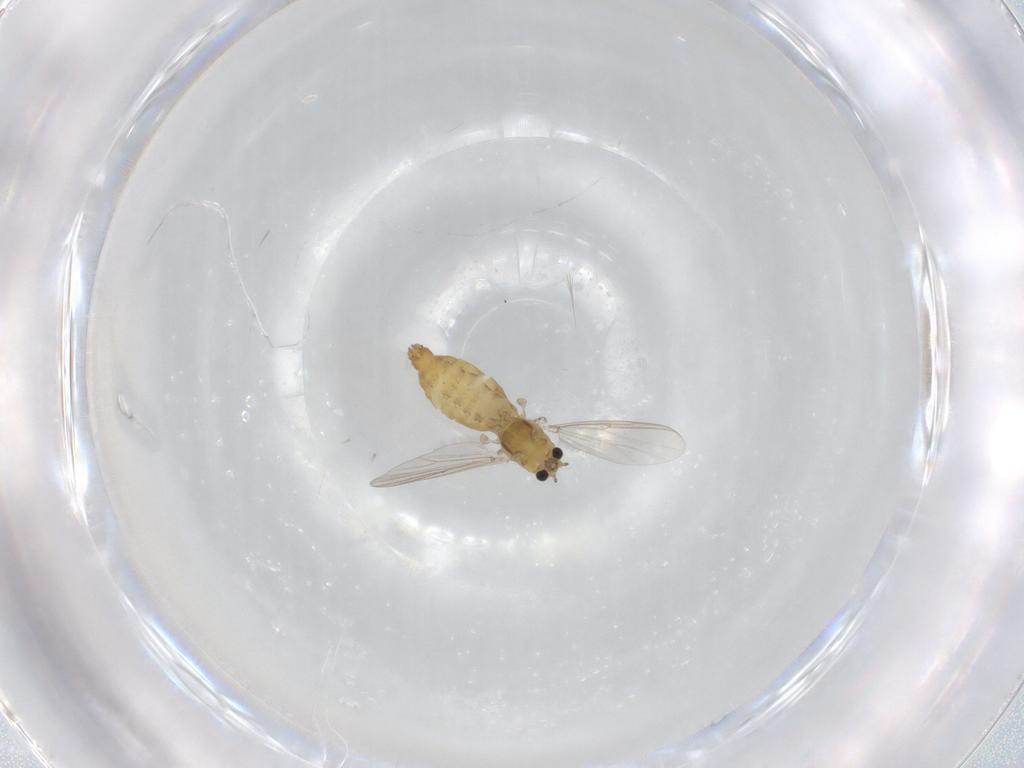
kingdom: Animalia
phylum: Arthropoda
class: Insecta
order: Diptera
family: Chironomidae
